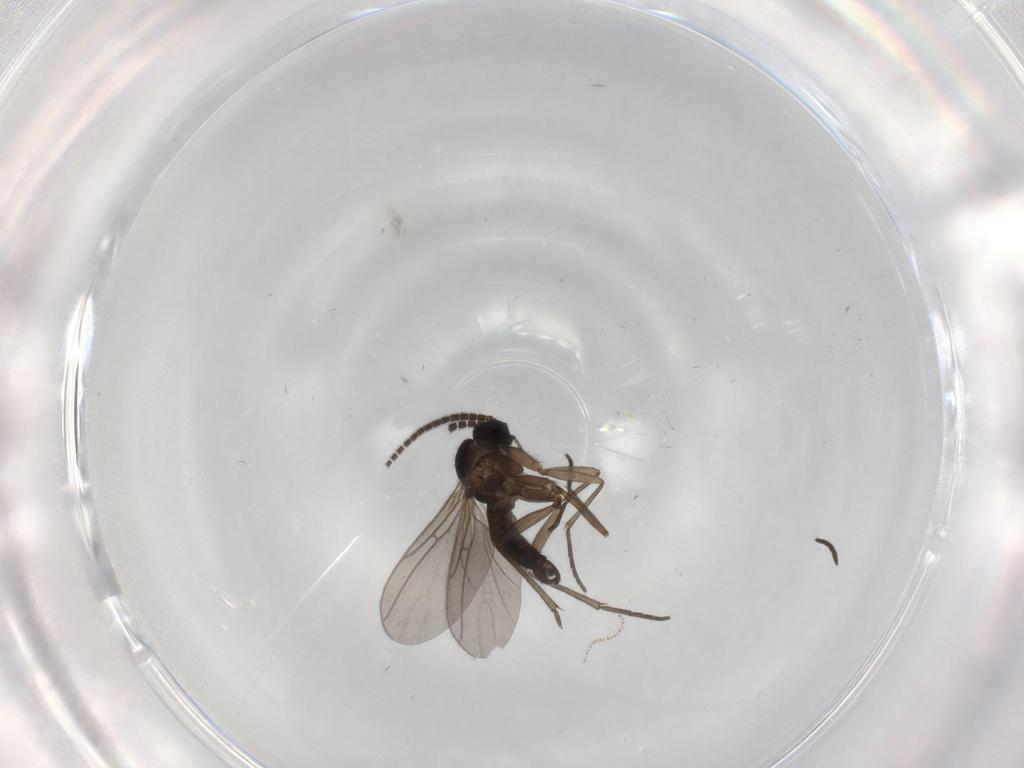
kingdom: Animalia
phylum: Arthropoda
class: Insecta
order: Diptera
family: Sciaridae
